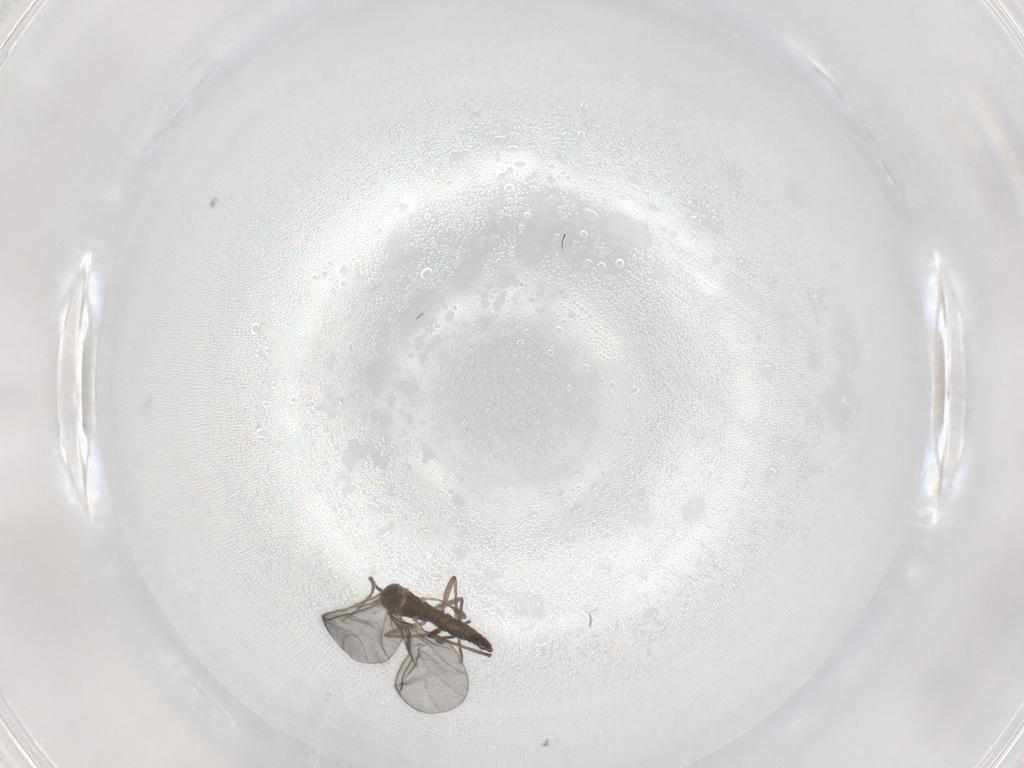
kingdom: Animalia
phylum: Arthropoda
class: Insecta
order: Diptera
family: Sciaridae
